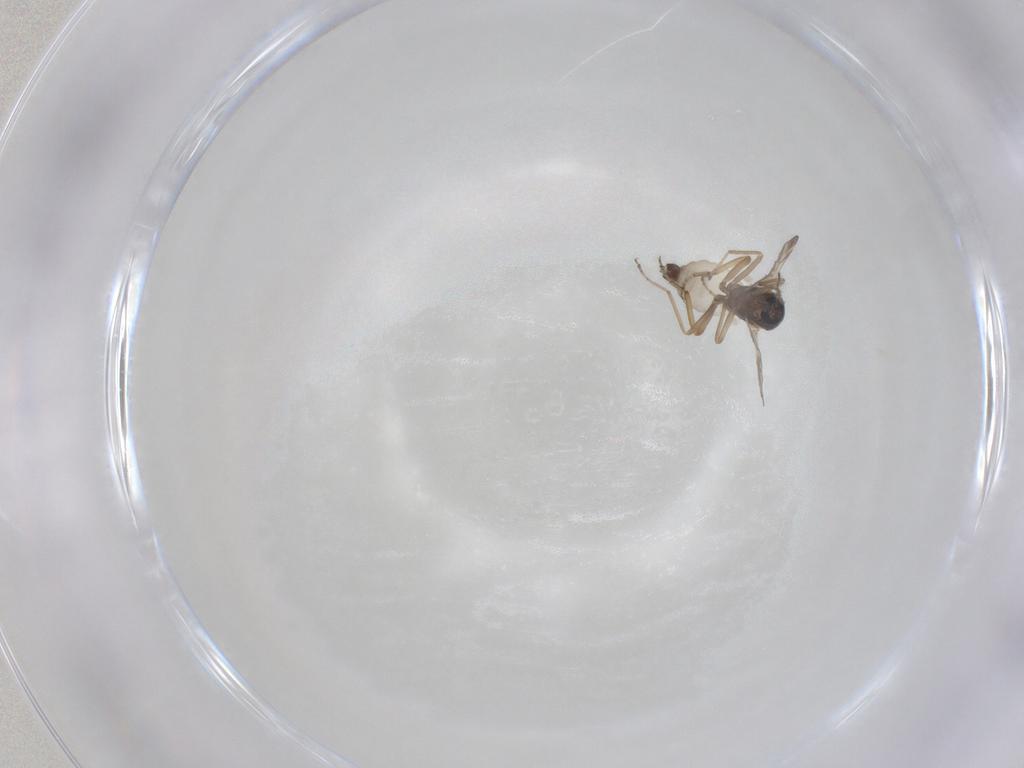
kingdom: Animalia
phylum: Arthropoda
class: Insecta
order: Diptera
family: Ceratopogonidae
